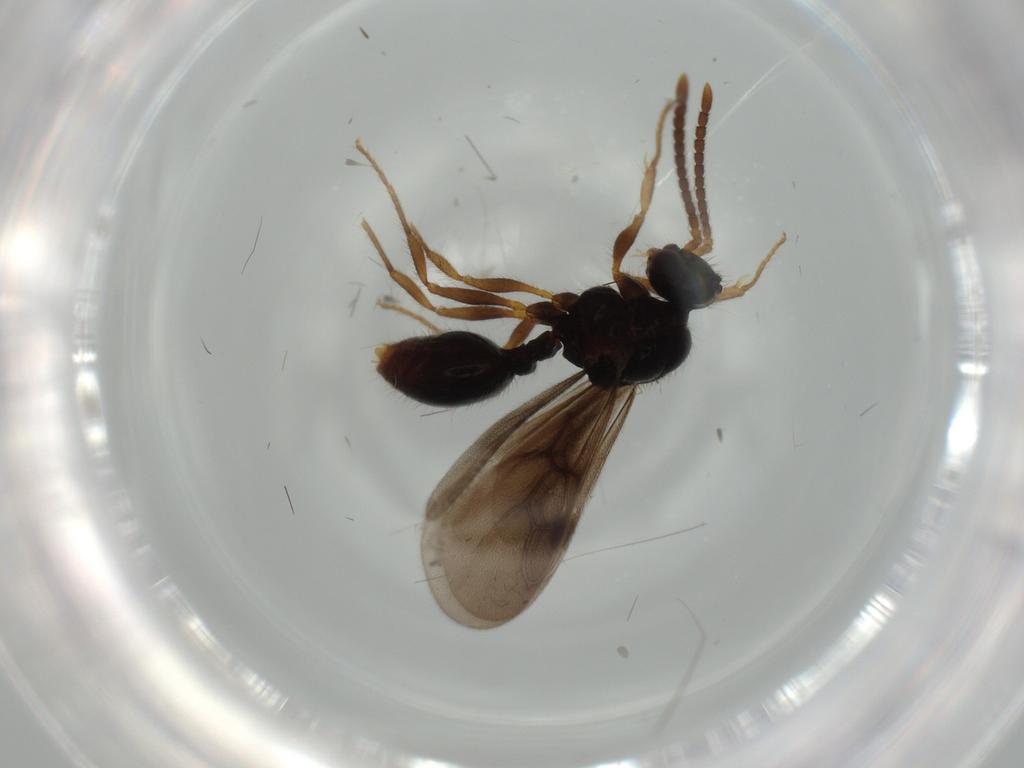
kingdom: Animalia
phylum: Arthropoda
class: Insecta
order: Hymenoptera
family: Formicidae
